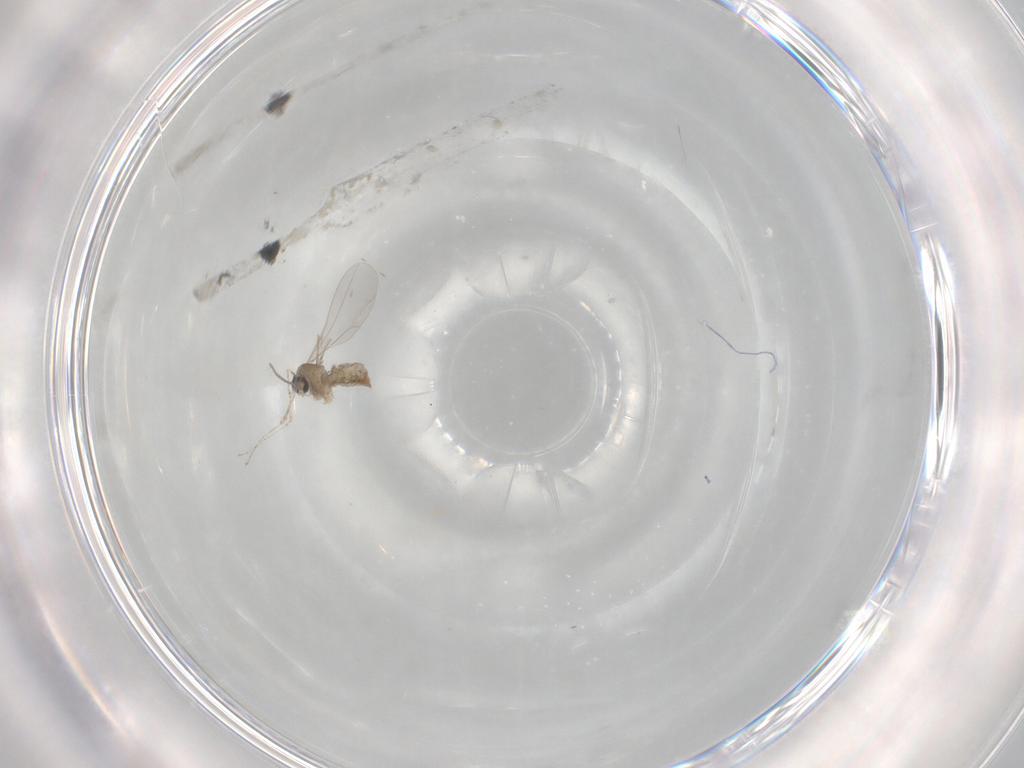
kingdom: Animalia
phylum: Arthropoda
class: Insecta
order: Diptera
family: Cecidomyiidae
